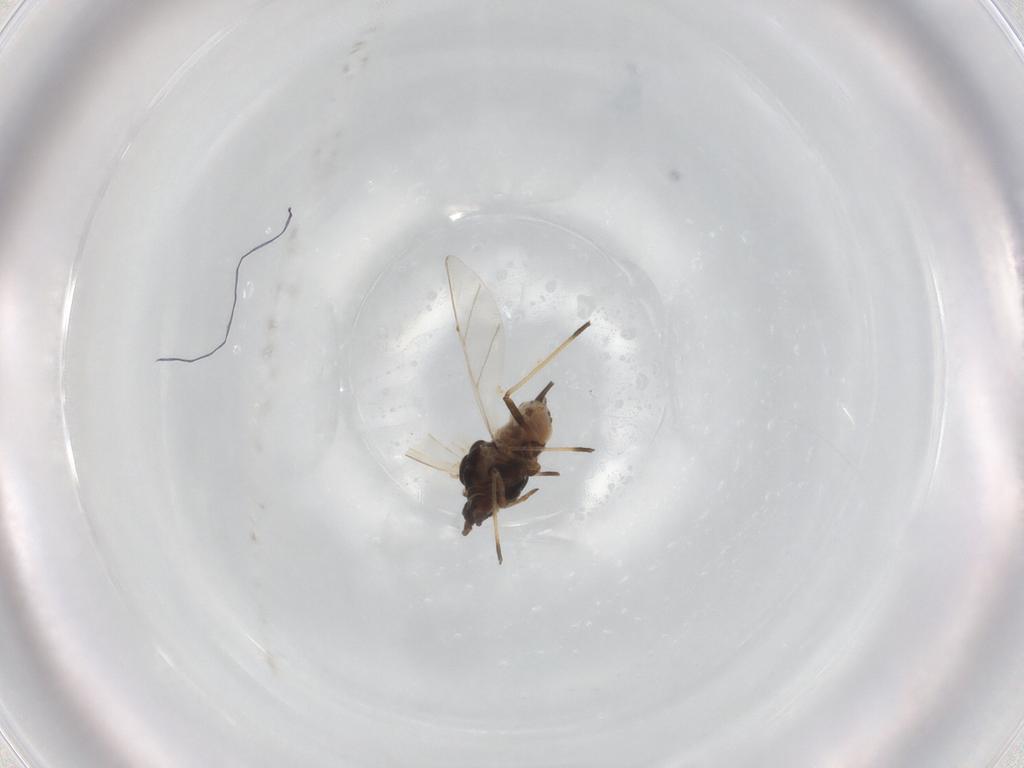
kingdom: Animalia
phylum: Arthropoda
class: Insecta
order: Hemiptera
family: Aphididae
